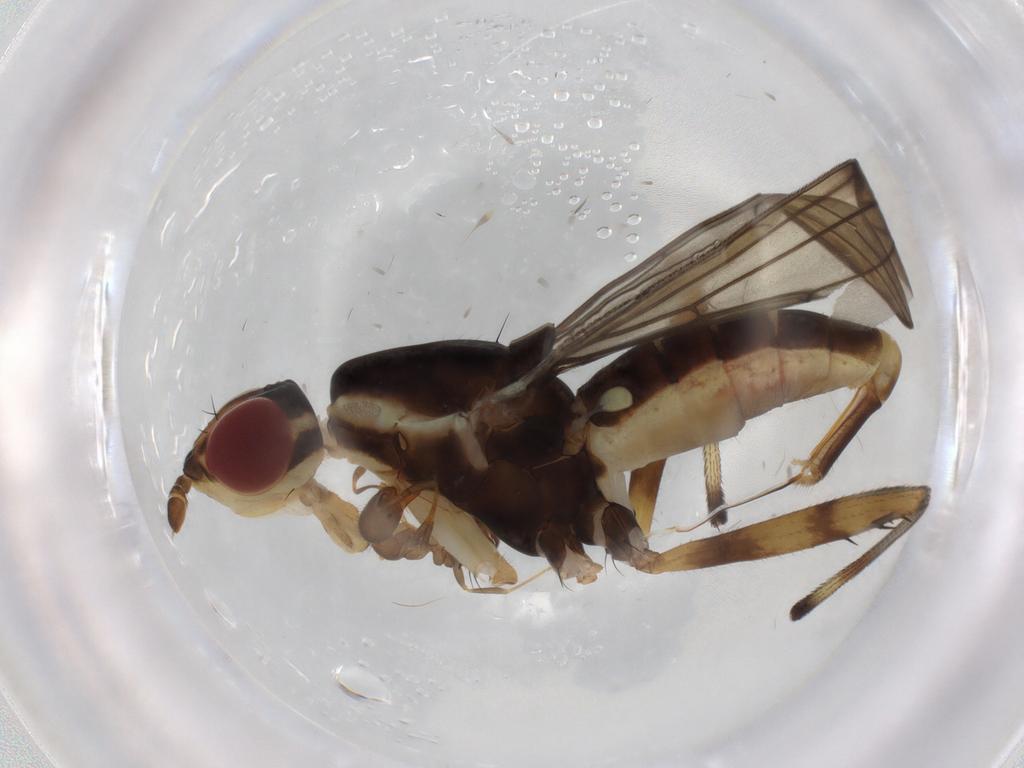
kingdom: Animalia
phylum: Arthropoda
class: Insecta
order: Diptera
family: Neriidae
